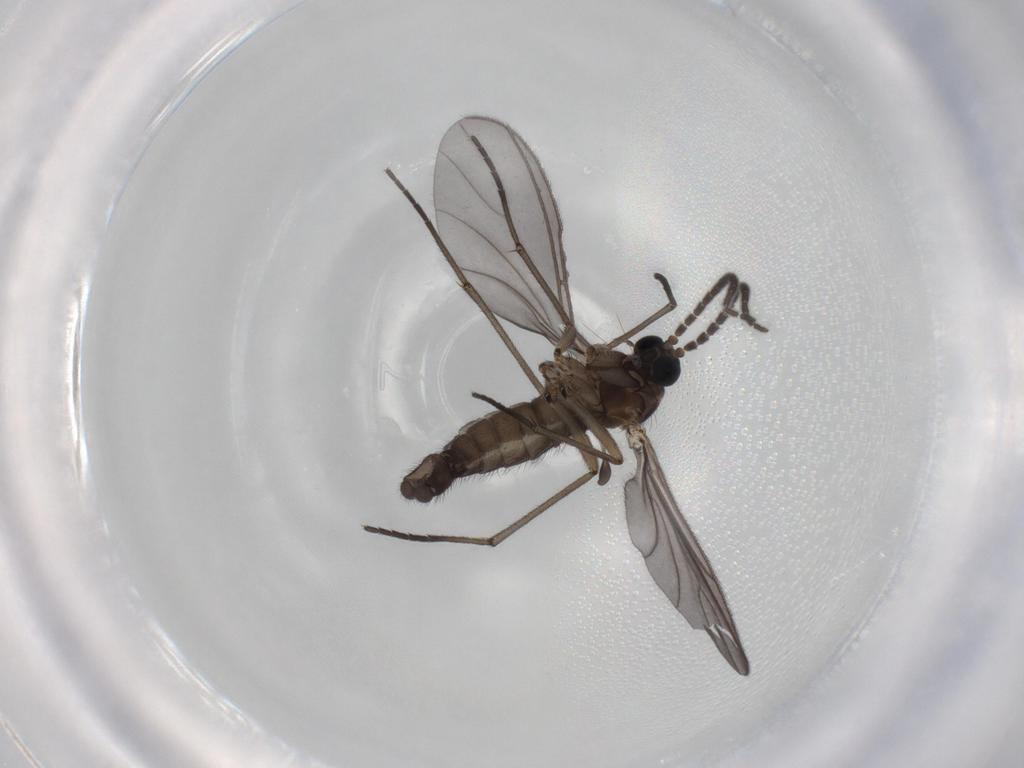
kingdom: Animalia
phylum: Arthropoda
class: Insecta
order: Diptera
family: Sciaridae
